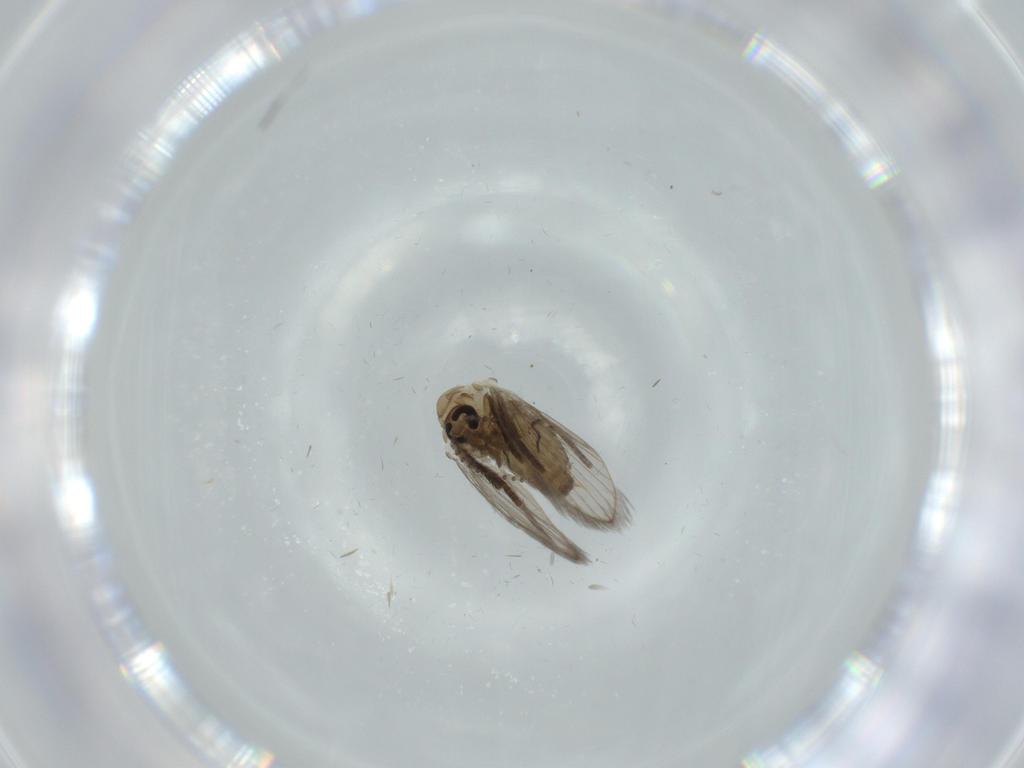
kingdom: Animalia
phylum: Arthropoda
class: Insecta
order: Diptera
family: Psychodidae
